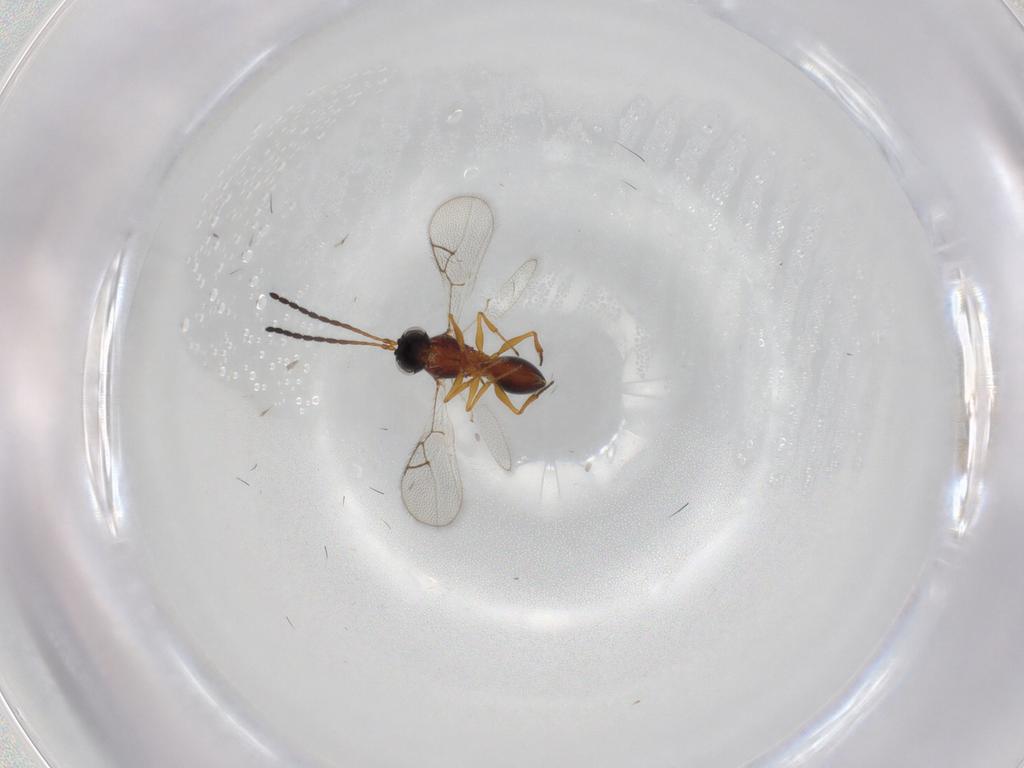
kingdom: Animalia
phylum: Arthropoda
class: Insecta
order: Hymenoptera
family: Figitidae
